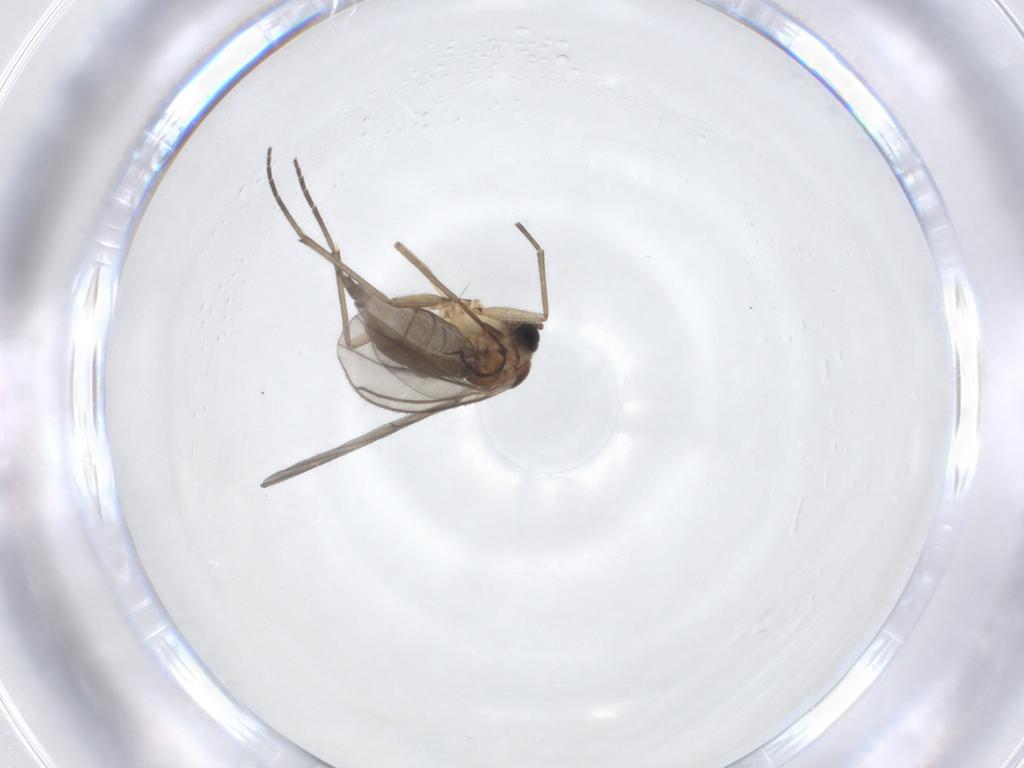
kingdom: Animalia
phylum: Arthropoda
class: Insecta
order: Diptera
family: Sciaridae
